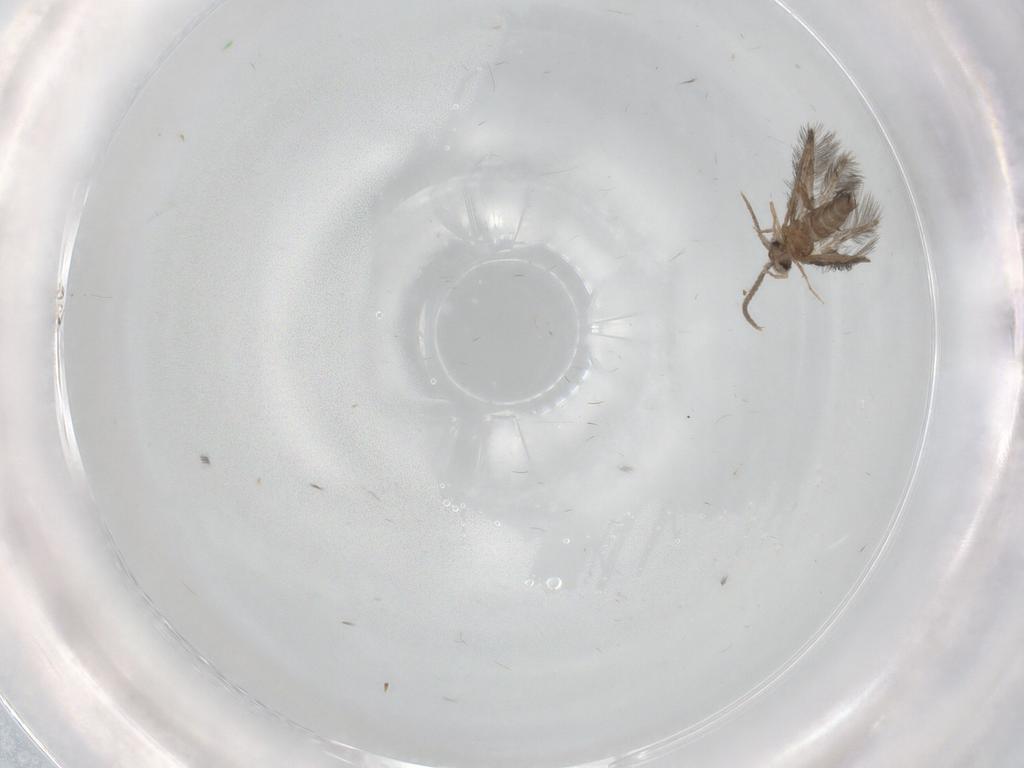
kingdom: Animalia
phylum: Arthropoda
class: Insecta
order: Trichoptera
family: Hydroptilidae
